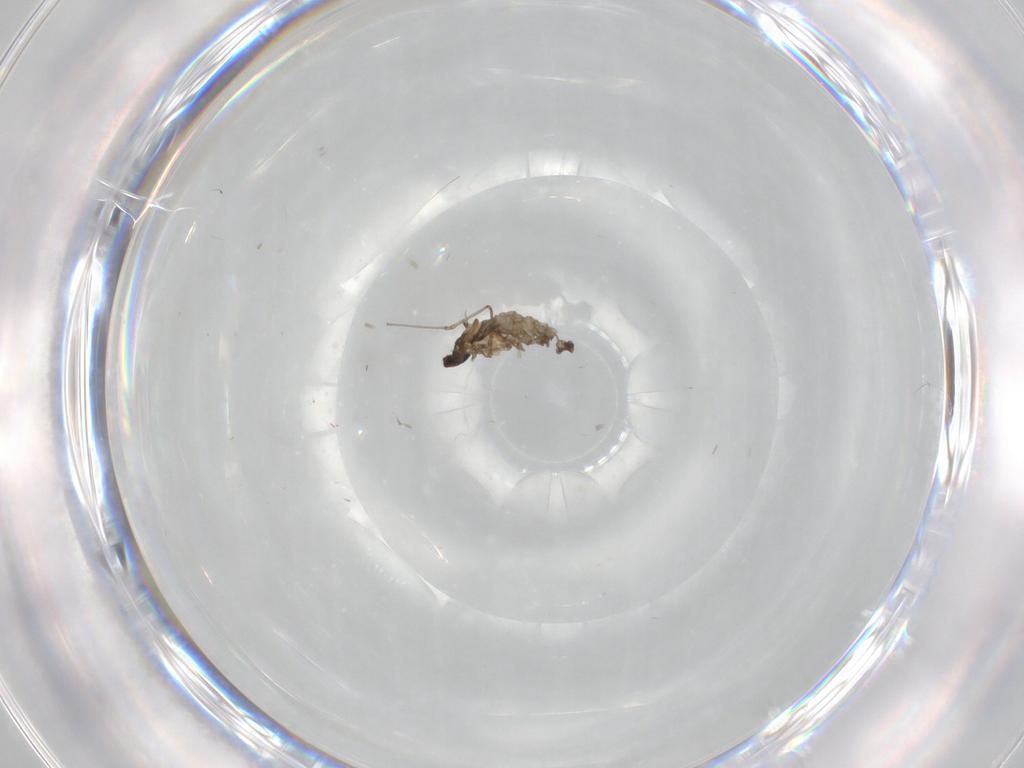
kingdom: Animalia
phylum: Arthropoda
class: Insecta
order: Diptera
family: Cecidomyiidae
